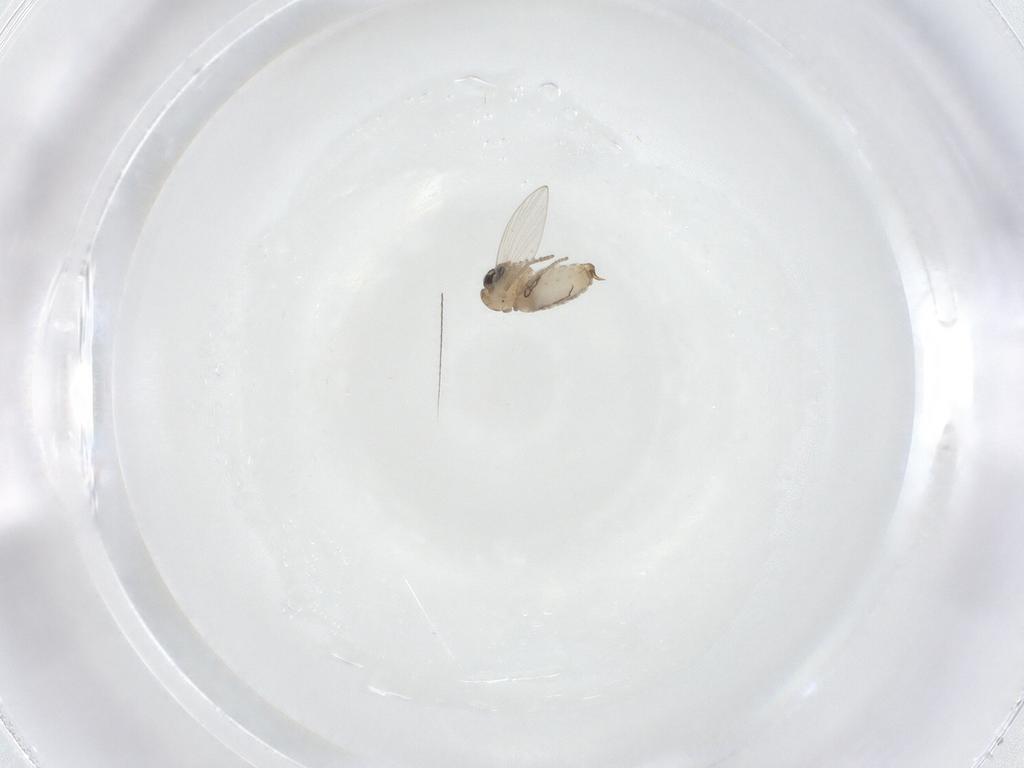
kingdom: Animalia
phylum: Arthropoda
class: Insecta
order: Diptera
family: Psychodidae
